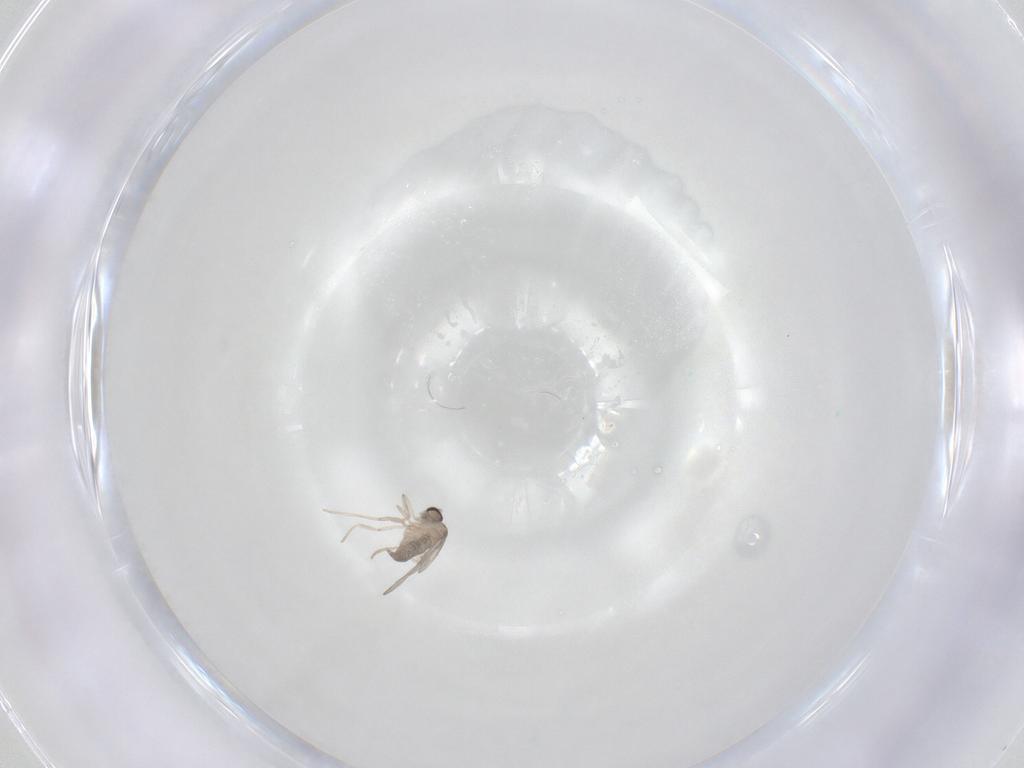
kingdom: Animalia
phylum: Arthropoda
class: Insecta
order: Diptera
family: Cecidomyiidae
